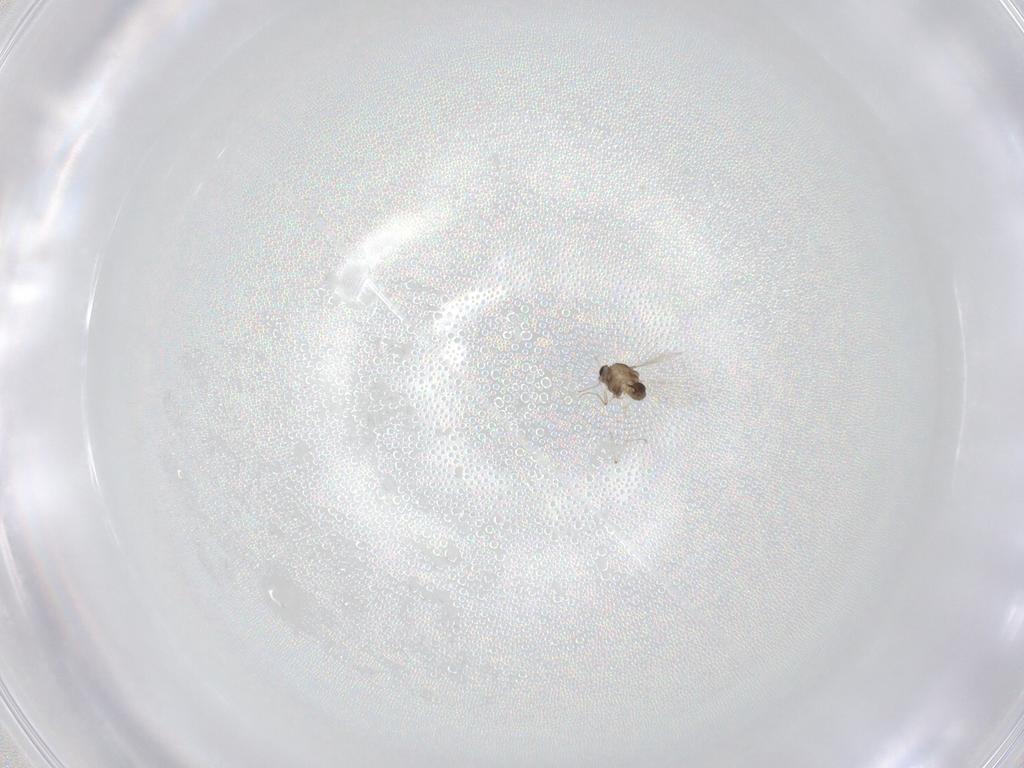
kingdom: Animalia
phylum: Arthropoda
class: Insecta
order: Diptera
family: Chironomidae
